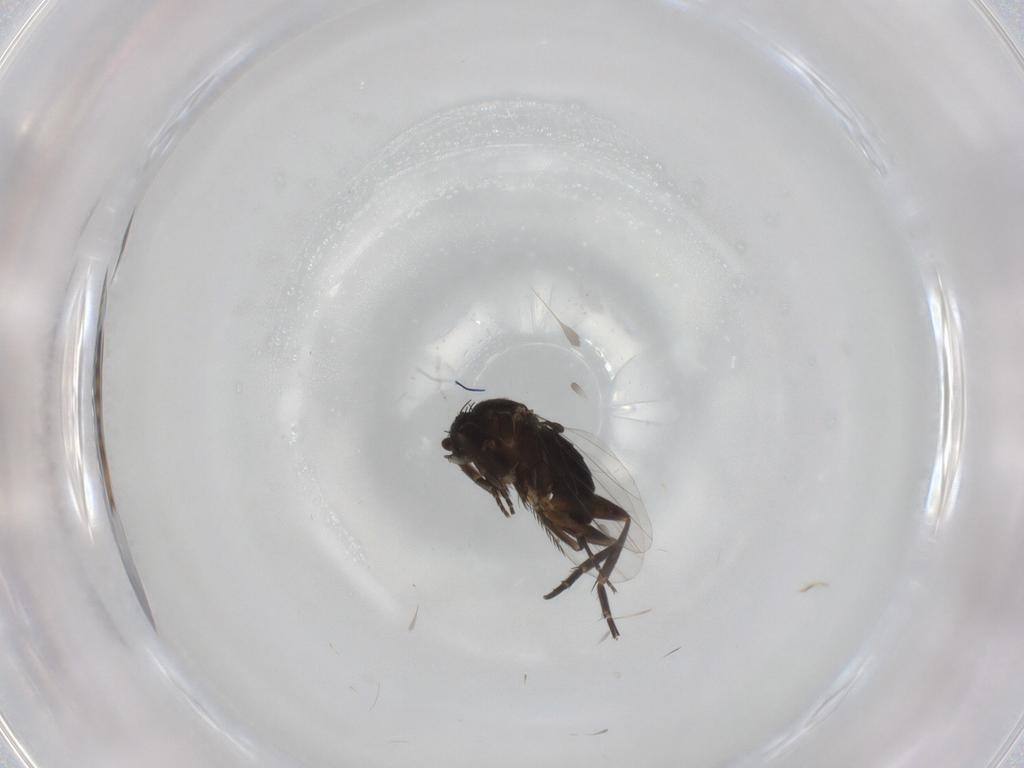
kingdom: Animalia
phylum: Arthropoda
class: Insecta
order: Diptera
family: Phoridae
